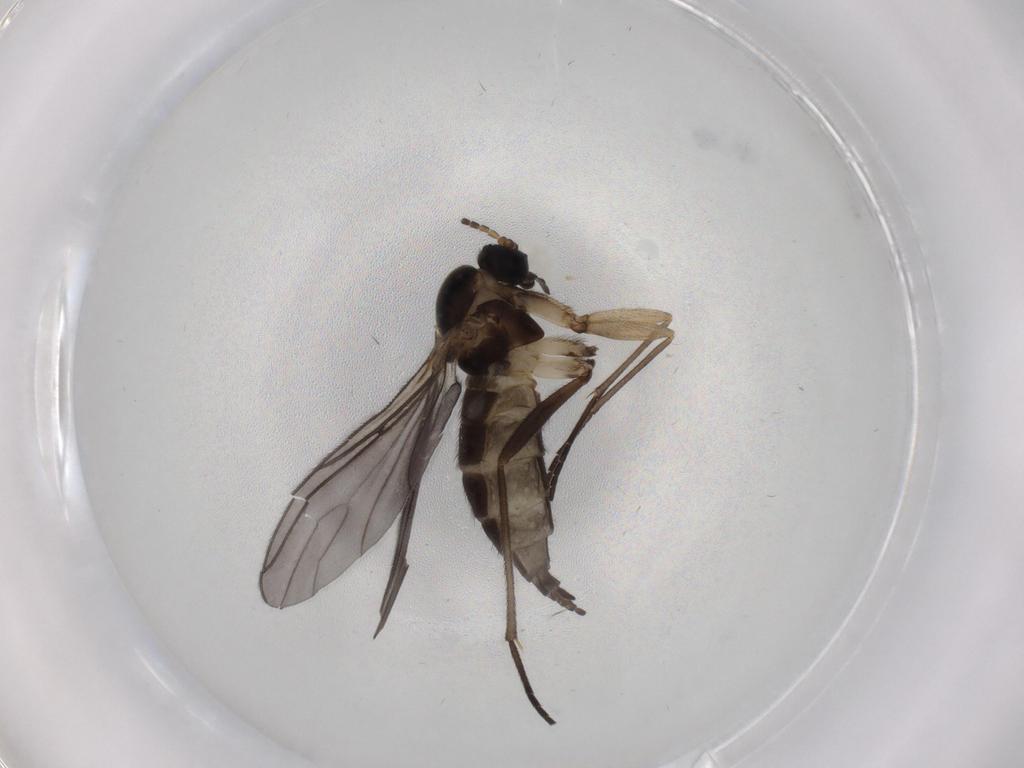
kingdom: Animalia
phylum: Arthropoda
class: Insecta
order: Diptera
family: Sciaridae
